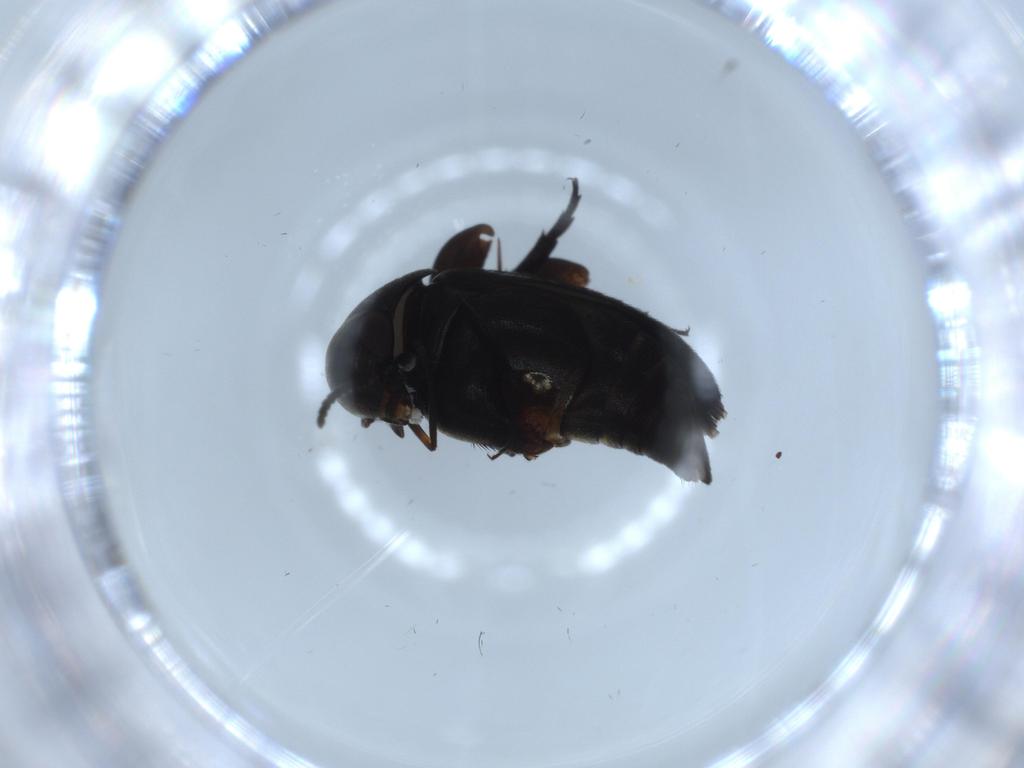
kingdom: Animalia
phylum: Arthropoda
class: Insecta
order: Coleoptera
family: Mordellidae
